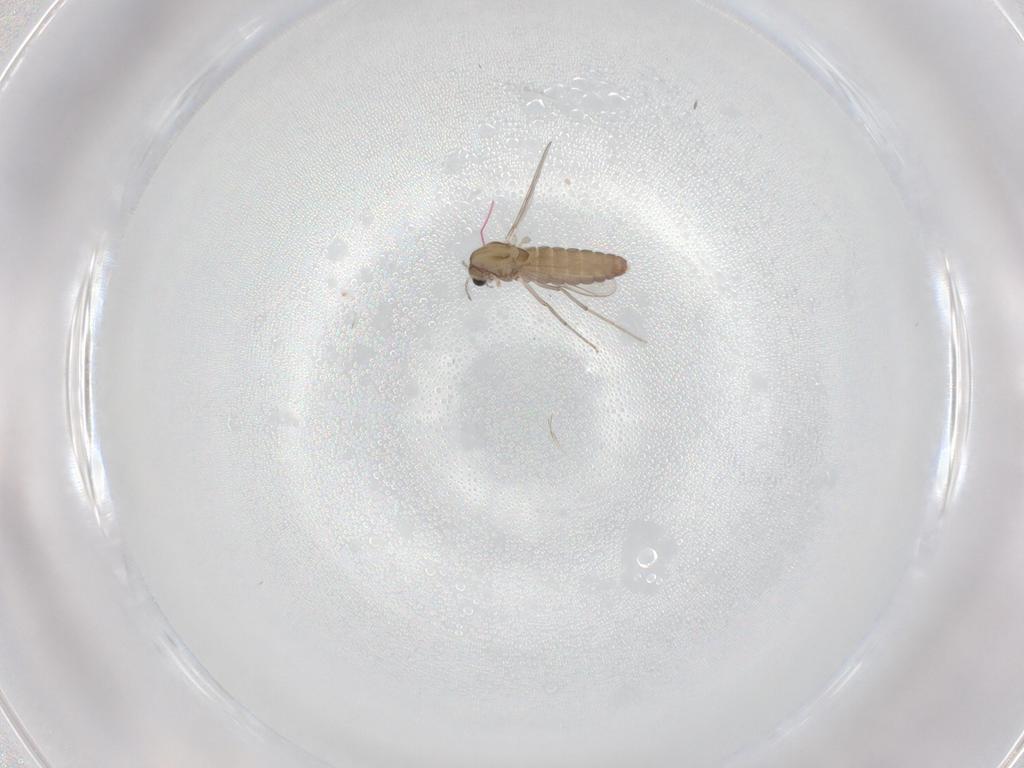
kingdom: Animalia
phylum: Arthropoda
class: Insecta
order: Diptera
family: Chironomidae
